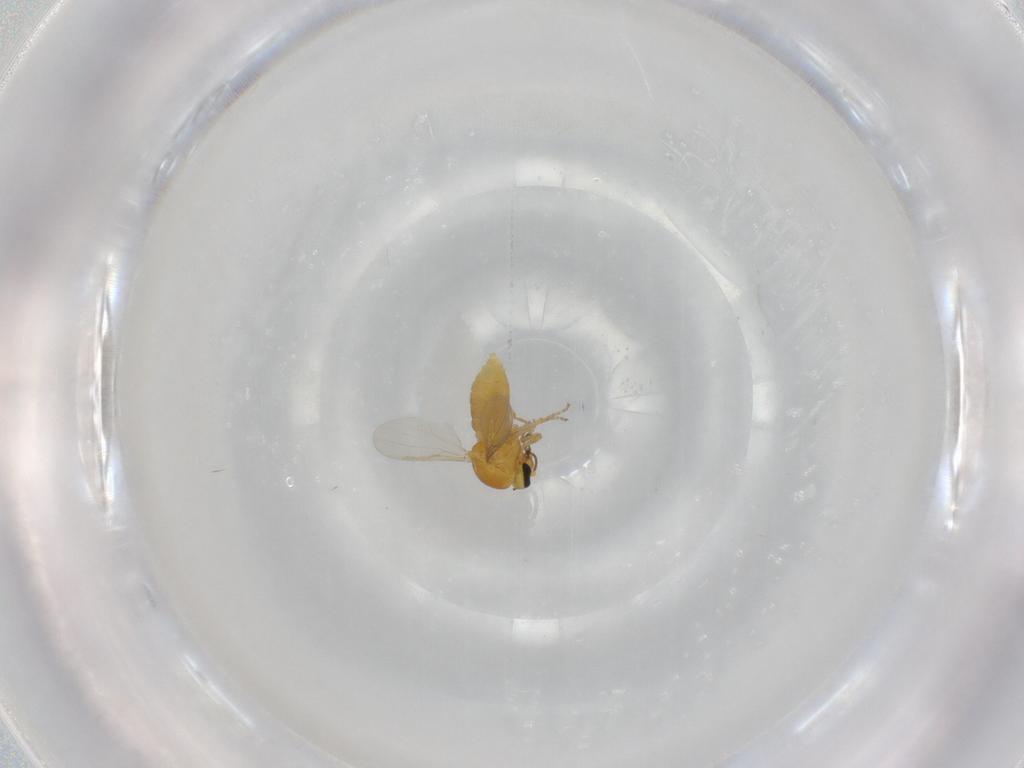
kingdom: Animalia
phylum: Arthropoda
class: Insecta
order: Diptera
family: Ceratopogonidae
